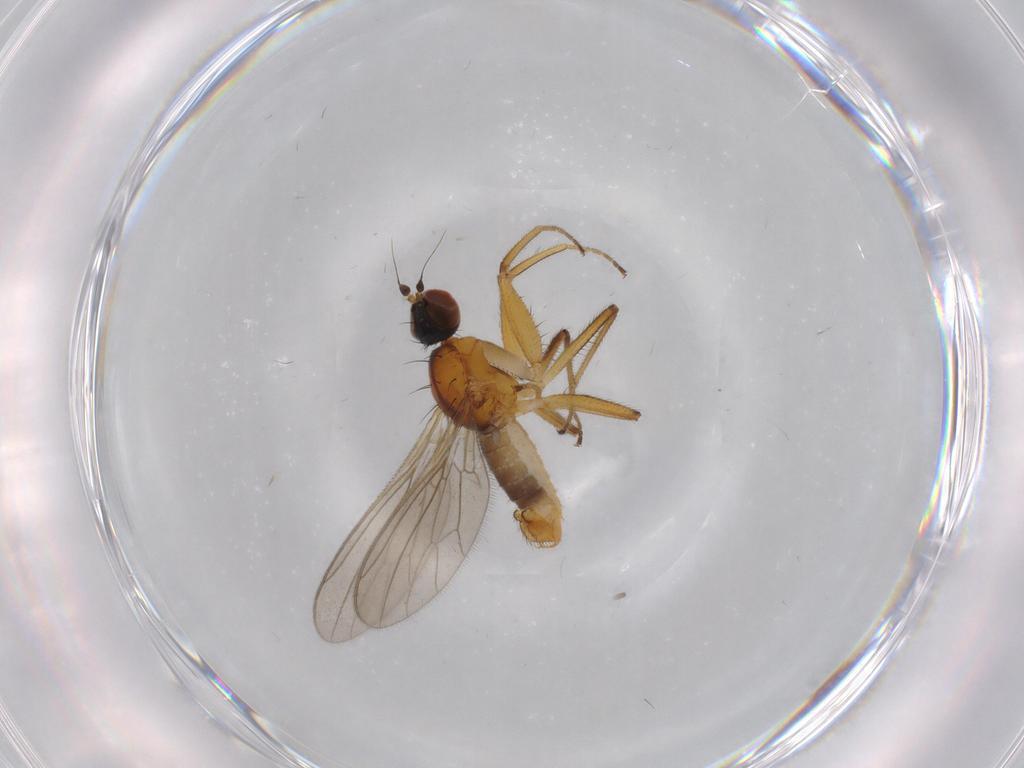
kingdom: Animalia
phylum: Arthropoda
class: Insecta
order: Diptera
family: Empididae
